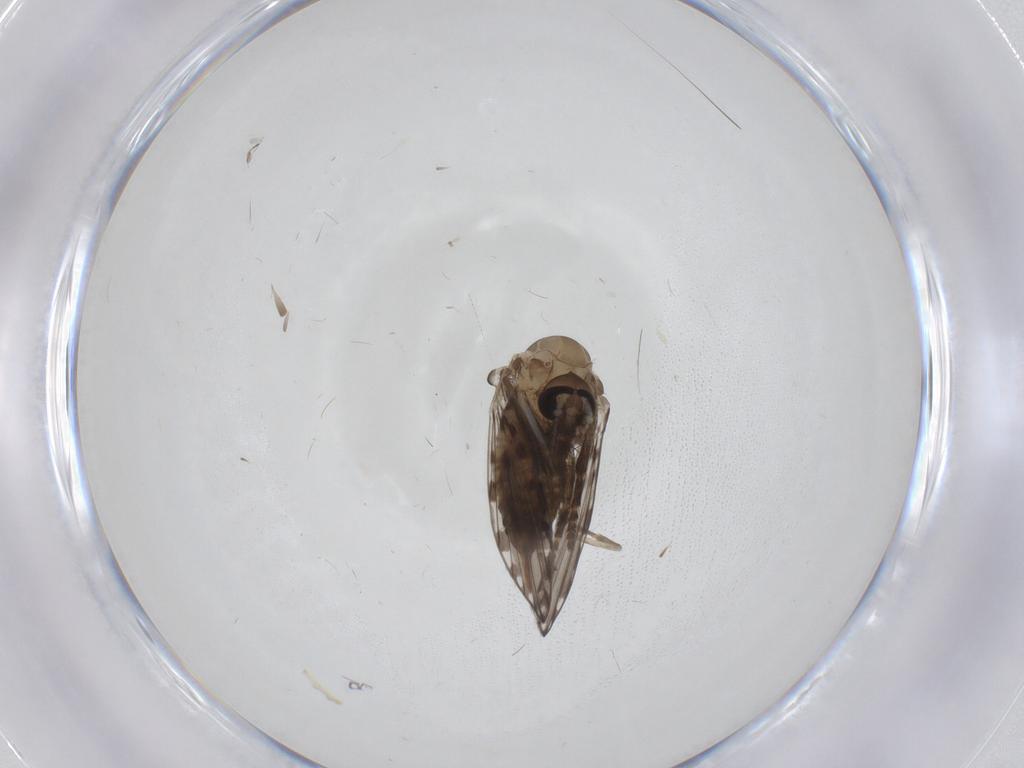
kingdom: Animalia
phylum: Arthropoda
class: Insecta
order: Diptera
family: Psychodidae
